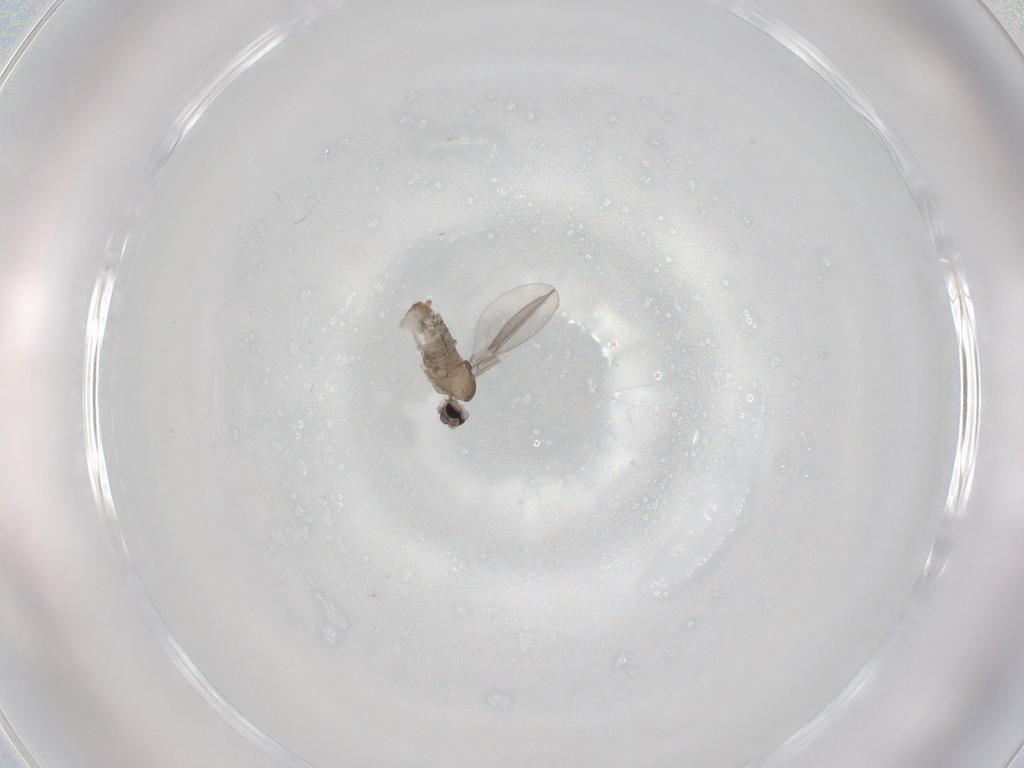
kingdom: Animalia
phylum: Arthropoda
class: Insecta
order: Diptera
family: Cecidomyiidae
